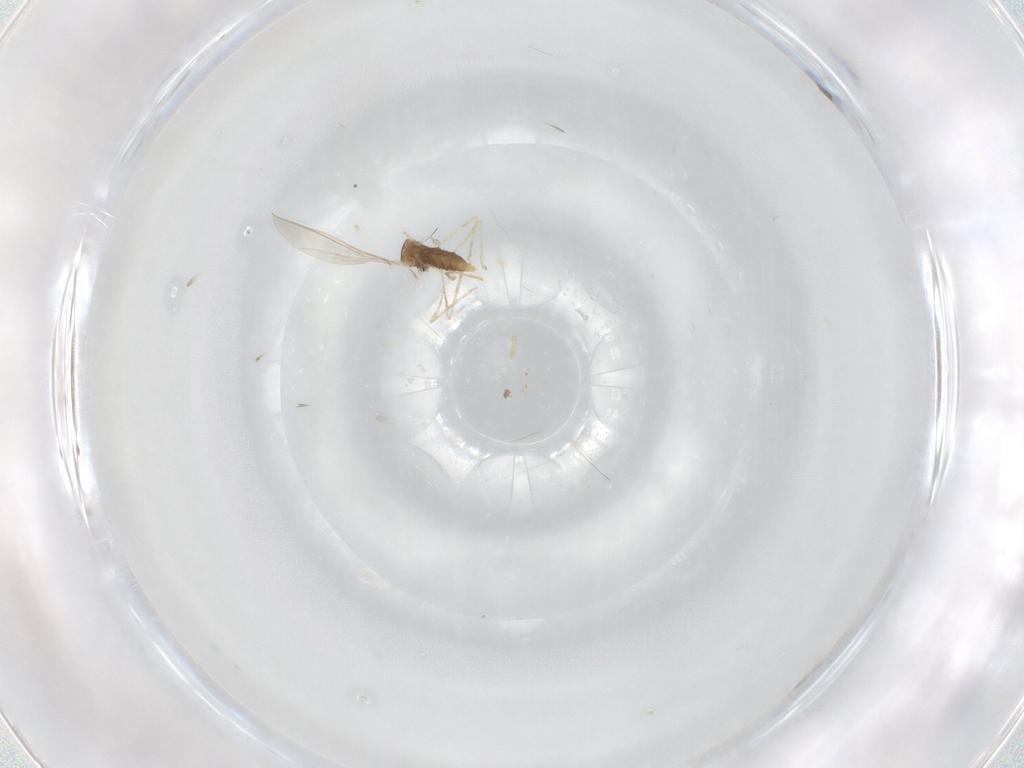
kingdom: Animalia
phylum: Arthropoda
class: Insecta
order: Diptera
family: Cecidomyiidae
